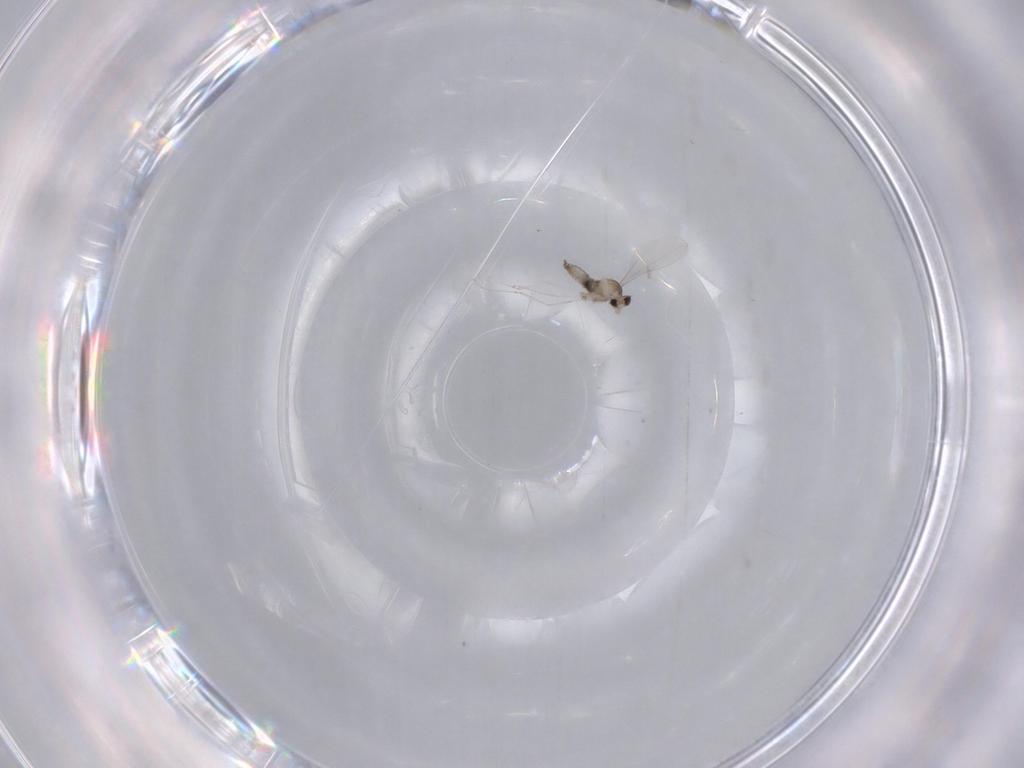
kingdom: Animalia
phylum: Arthropoda
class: Insecta
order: Diptera
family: Cecidomyiidae
